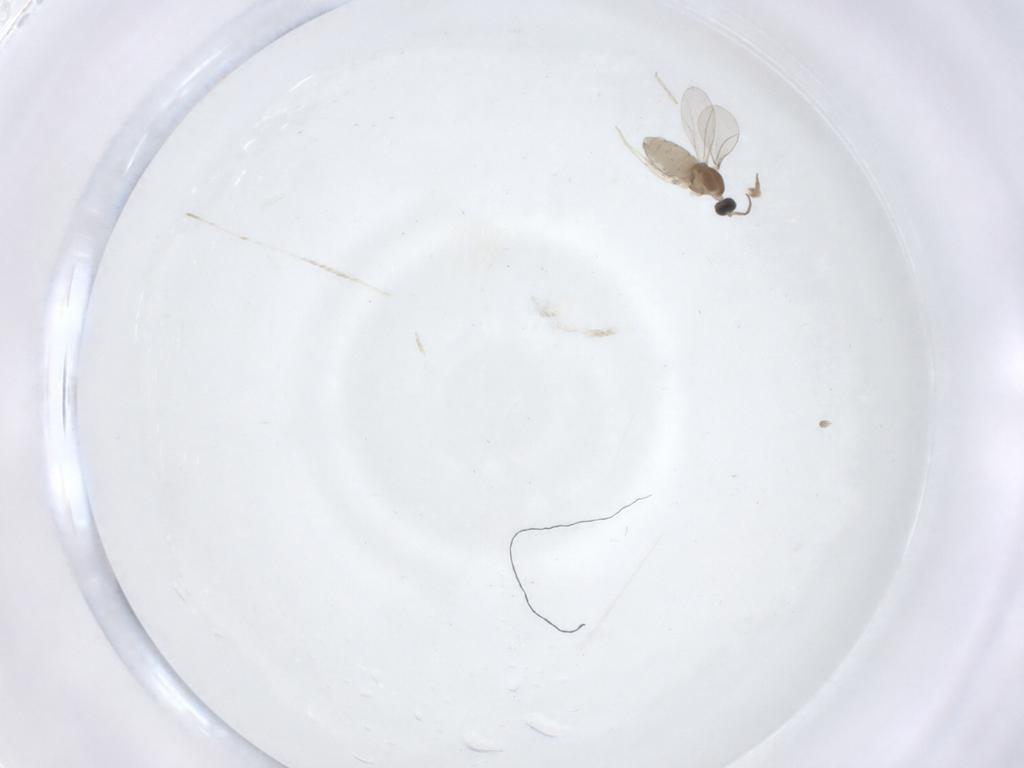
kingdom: Animalia
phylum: Arthropoda
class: Insecta
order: Diptera
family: Cecidomyiidae
